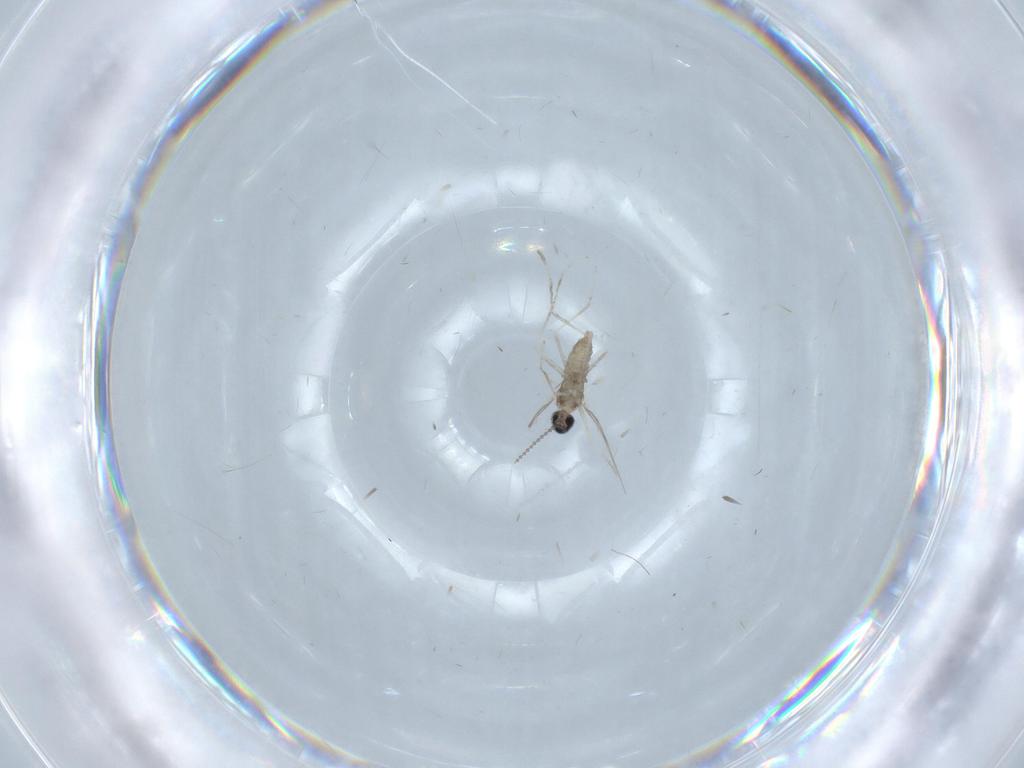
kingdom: Animalia
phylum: Arthropoda
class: Insecta
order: Diptera
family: Cecidomyiidae
